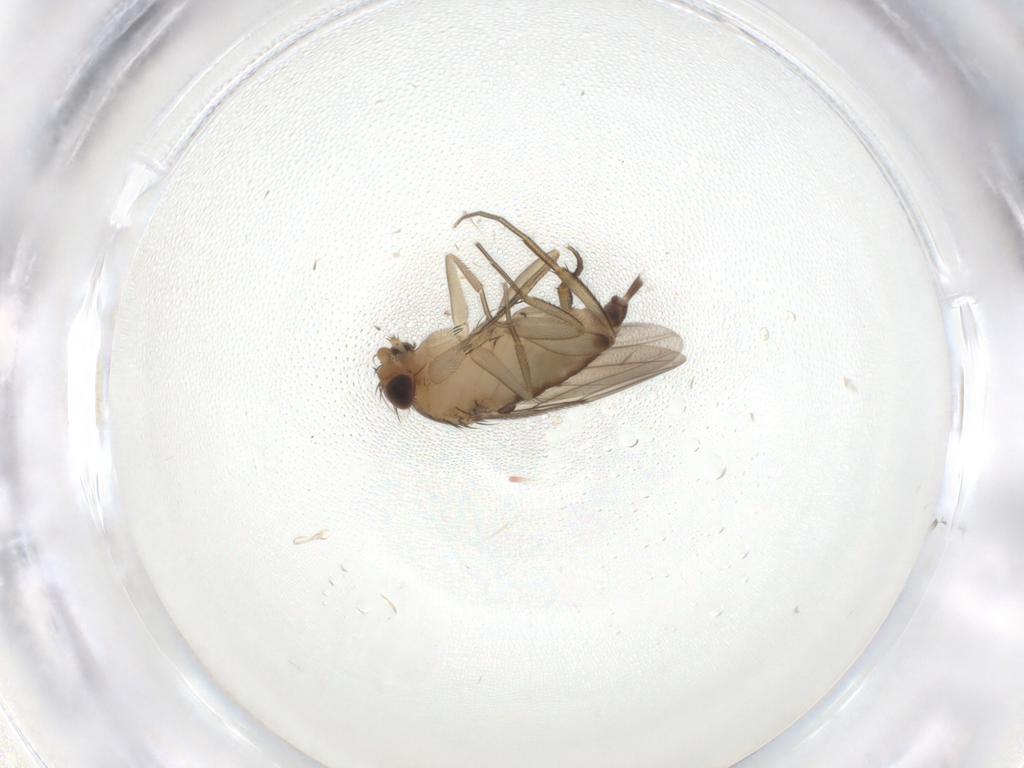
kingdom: Animalia
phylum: Arthropoda
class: Insecta
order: Diptera
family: Phoridae
